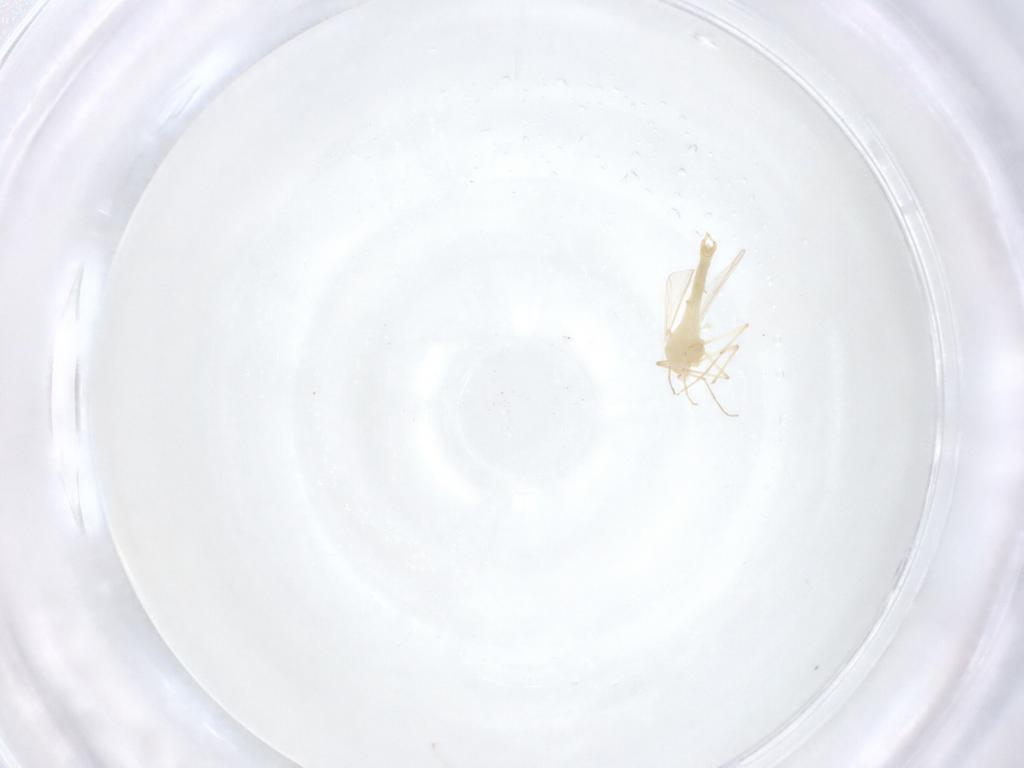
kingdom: Animalia
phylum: Arthropoda
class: Insecta
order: Diptera
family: Chironomidae
